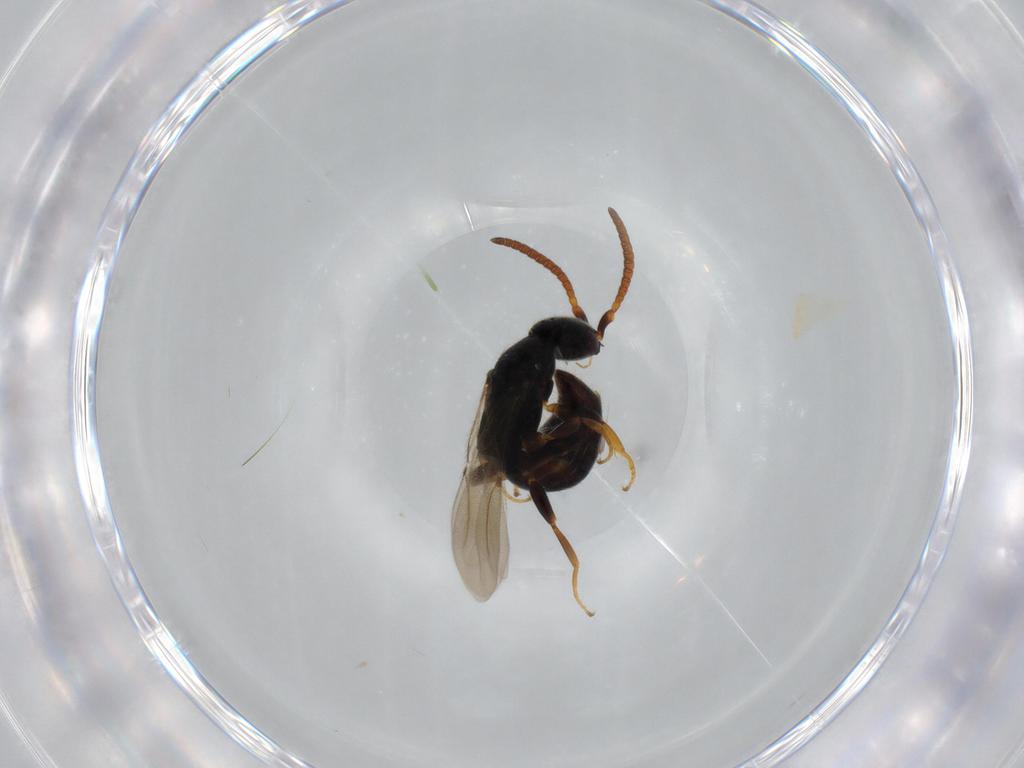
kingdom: Animalia
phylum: Arthropoda
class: Insecta
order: Hymenoptera
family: Bethylidae
